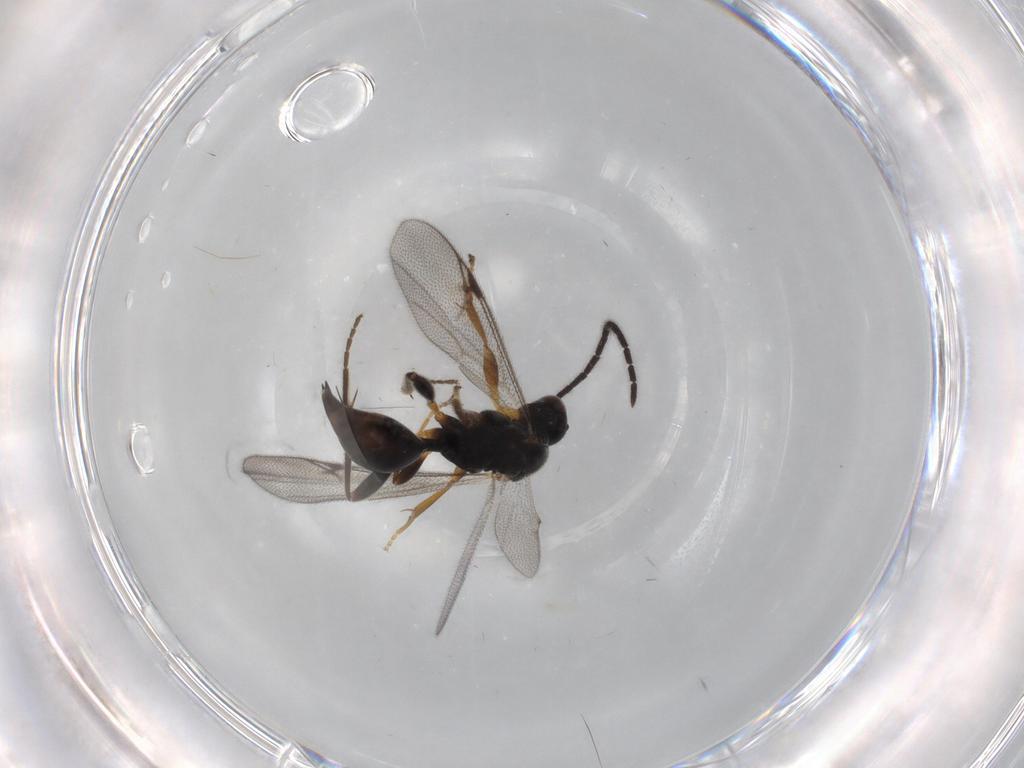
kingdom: Animalia
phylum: Arthropoda
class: Insecta
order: Hymenoptera
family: Proctotrupidae
